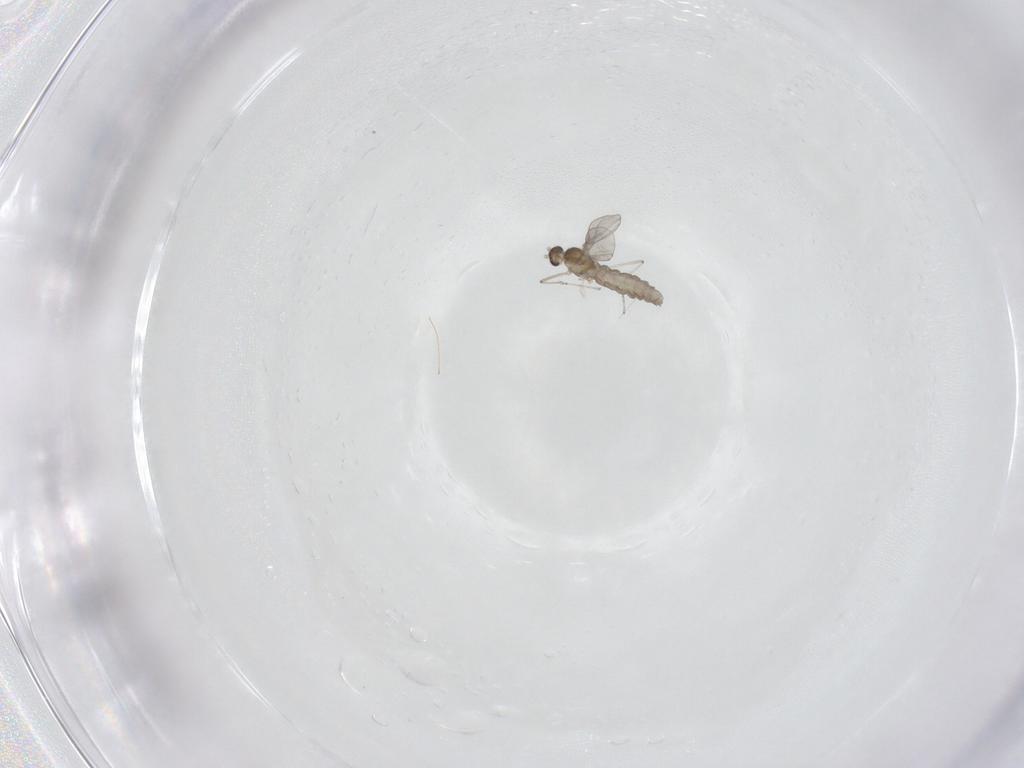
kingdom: Animalia
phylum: Arthropoda
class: Insecta
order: Diptera
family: Cecidomyiidae
